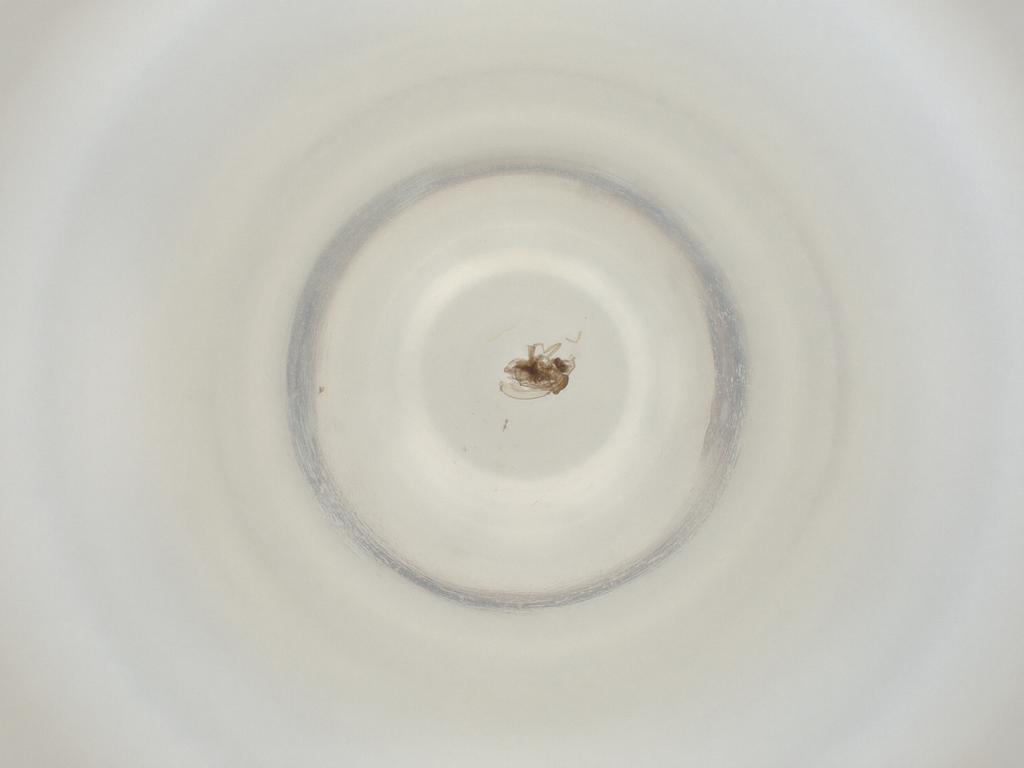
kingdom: Animalia
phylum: Arthropoda
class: Insecta
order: Diptera
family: Cecidomyiidae
